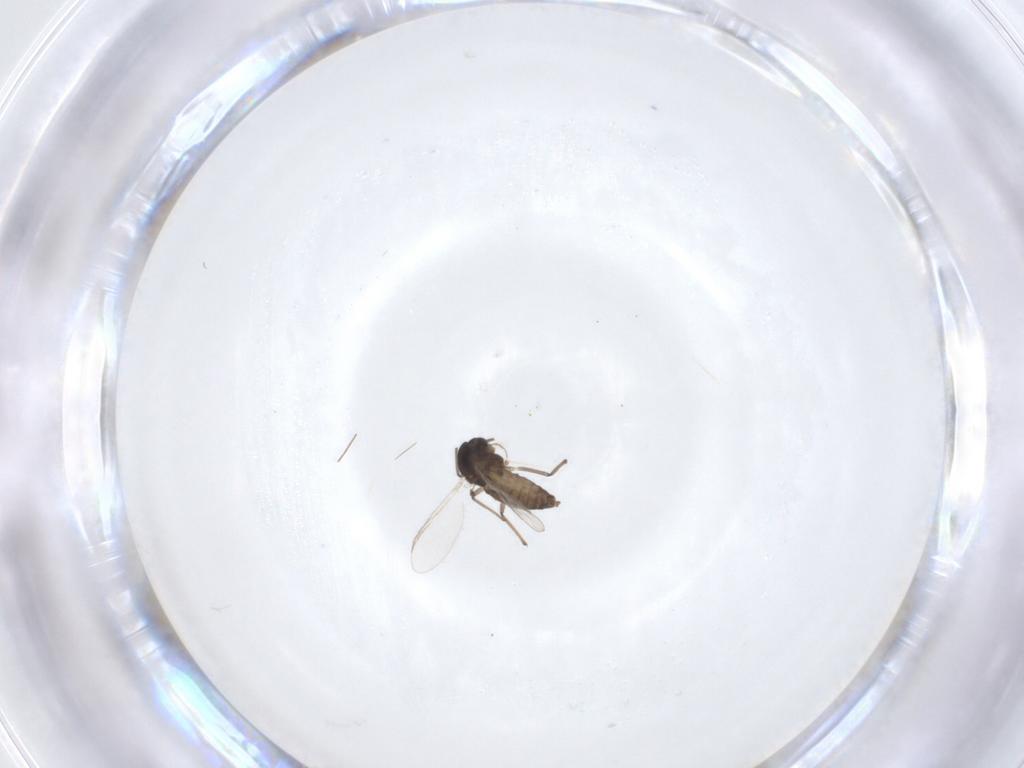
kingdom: Animalia
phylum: Arthropoda
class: Insecta
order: Diptera
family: Chironomidae
